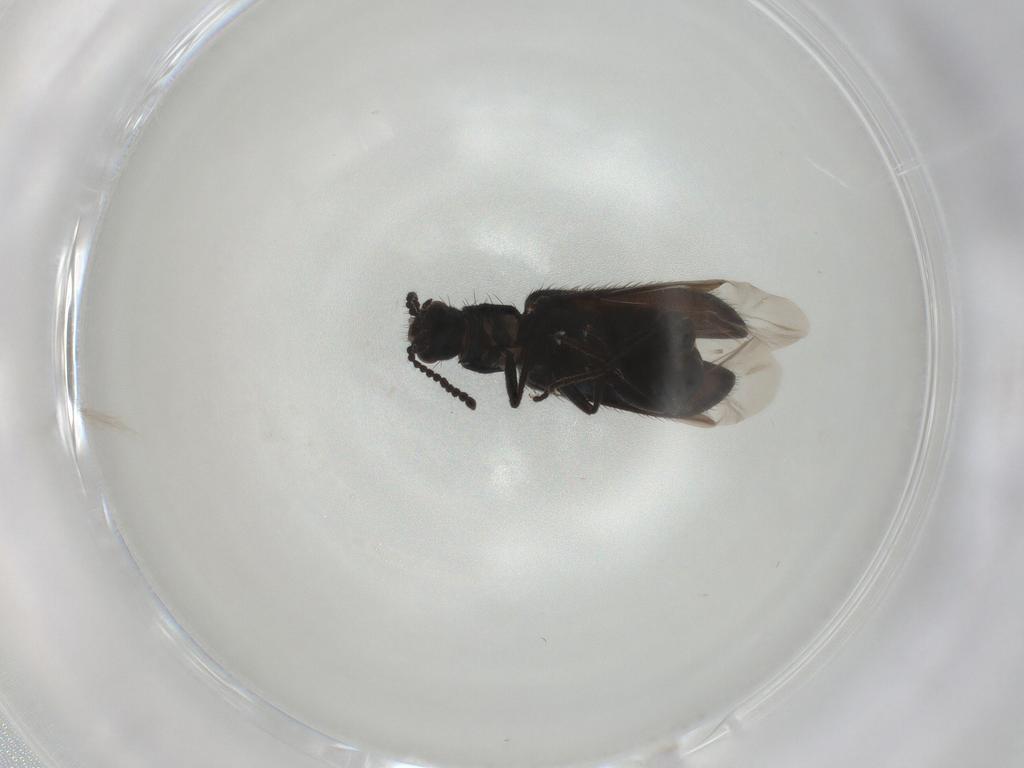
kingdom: Animalia
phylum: Arthropoda
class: Insecta
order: Coleoptera
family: Melyridae
